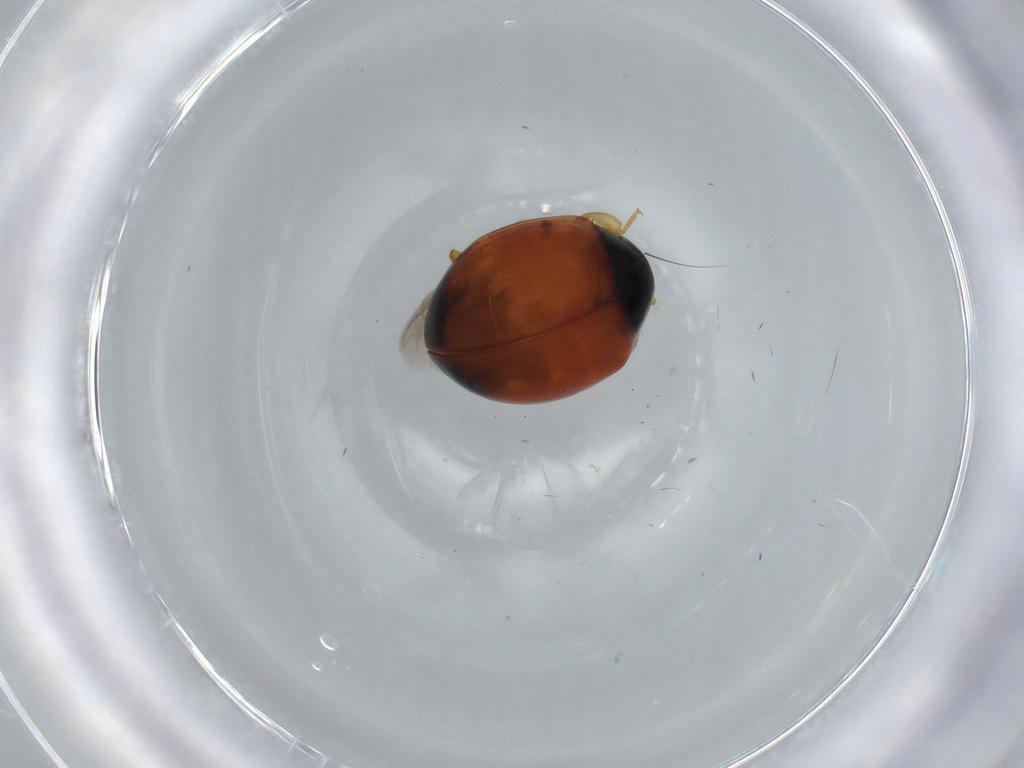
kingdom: Animalia
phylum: Arthropoda
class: Insecta
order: Coleoptera
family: Coccinellidae
